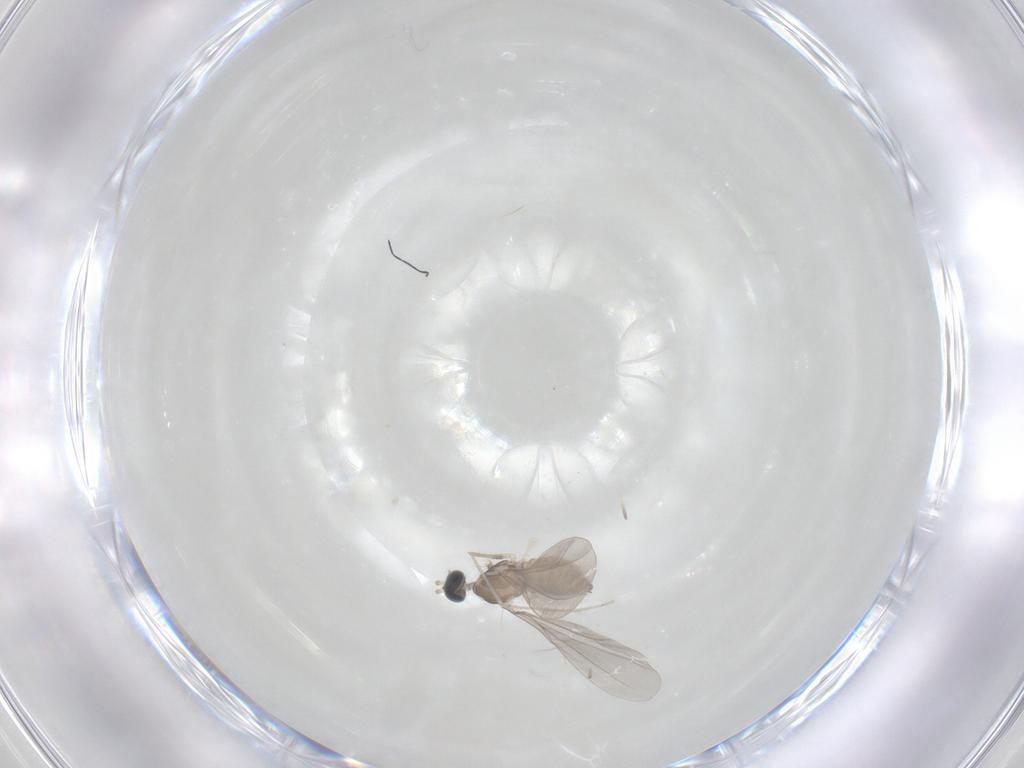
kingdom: Animalia
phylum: Arthropoda
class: Insecta
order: Diptera
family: Cecidomyiidae
